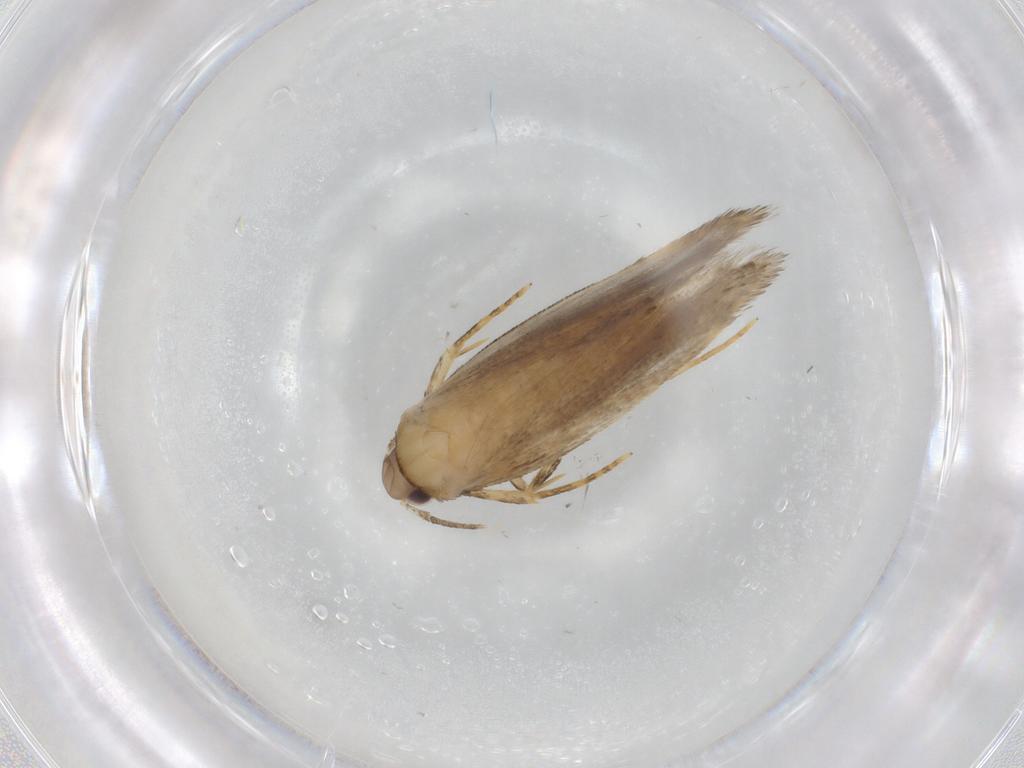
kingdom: Animalia
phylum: Arthropoda
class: Insecta
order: Lepidoptera
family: Autostichidae
